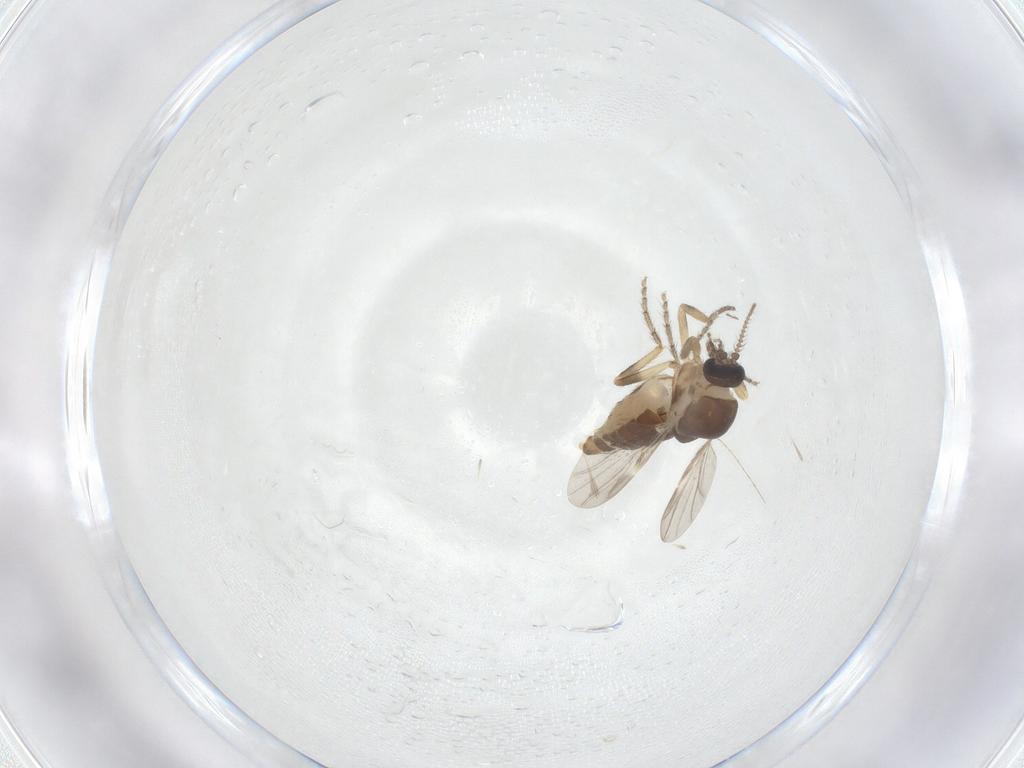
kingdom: Animalia
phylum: Arthropoda
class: Insecta
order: Diptera
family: Ceratopogonidae
